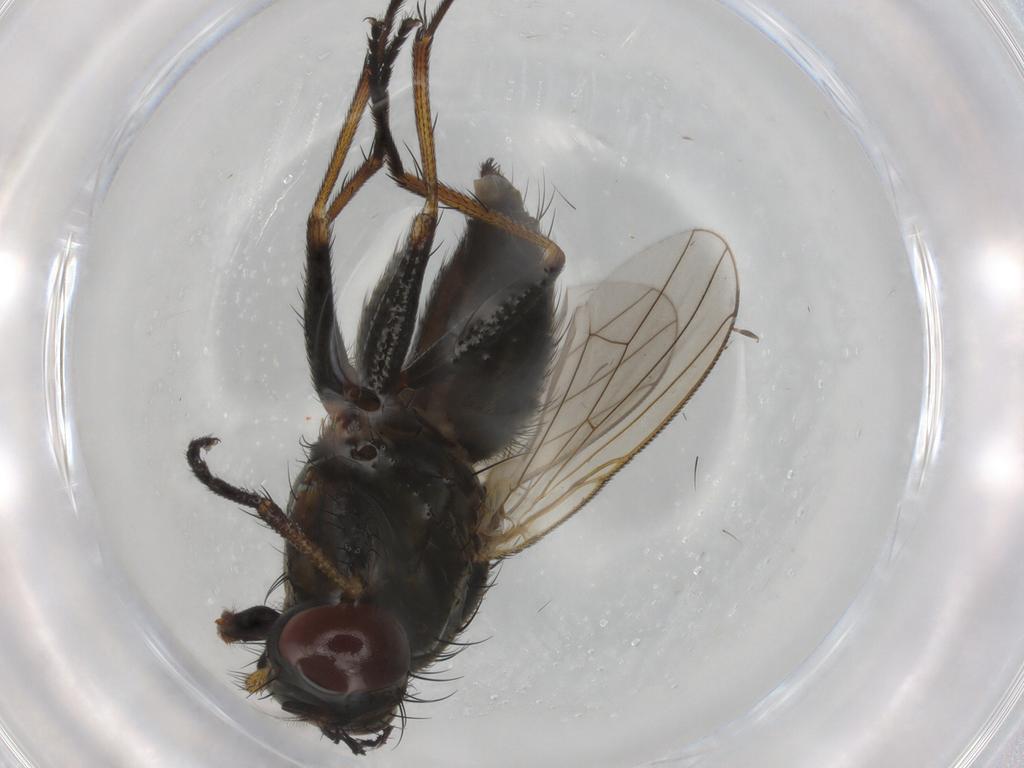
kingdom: Animalia
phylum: Arthropoda
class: Insecta
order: Diptera
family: Muscidae
